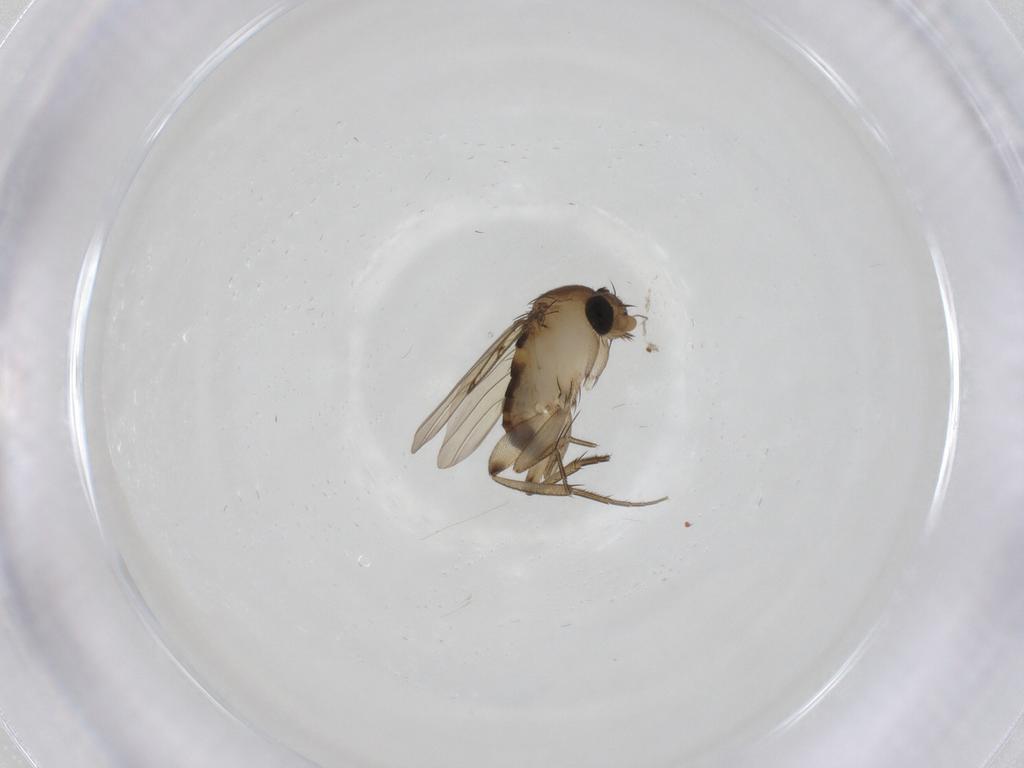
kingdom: Animalia
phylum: Arthropoda
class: Insecta
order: Diptera
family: Phoridae
